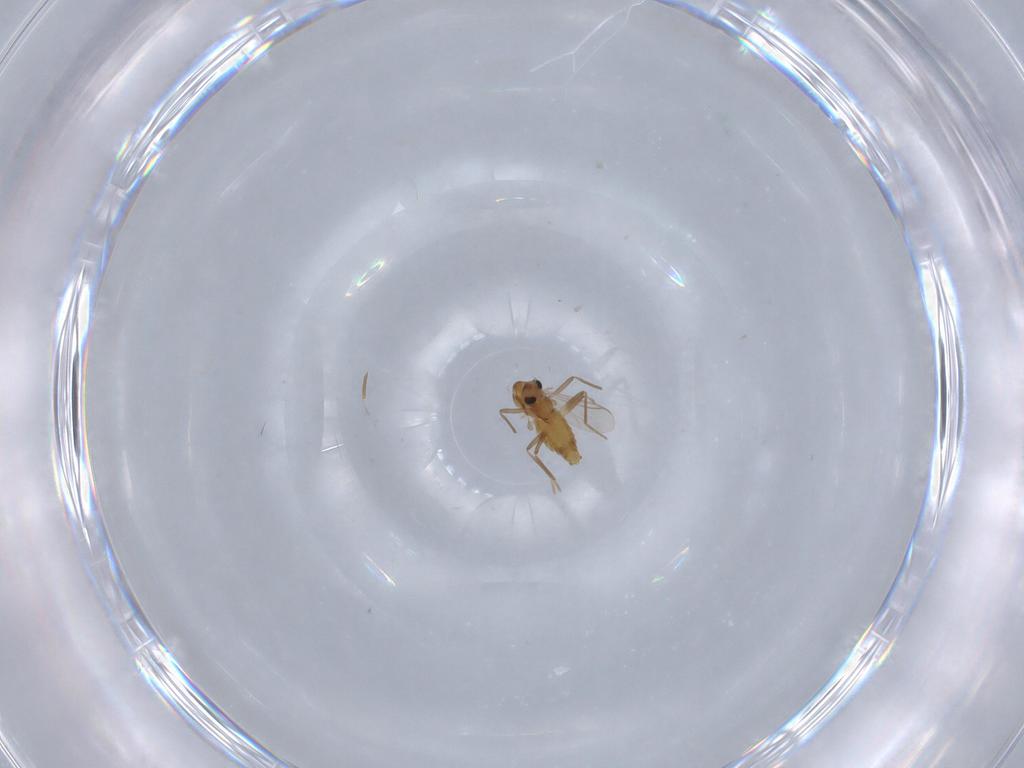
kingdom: Animalia
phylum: Arthropoda
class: Insecta
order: Diptera
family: Chironomidae
